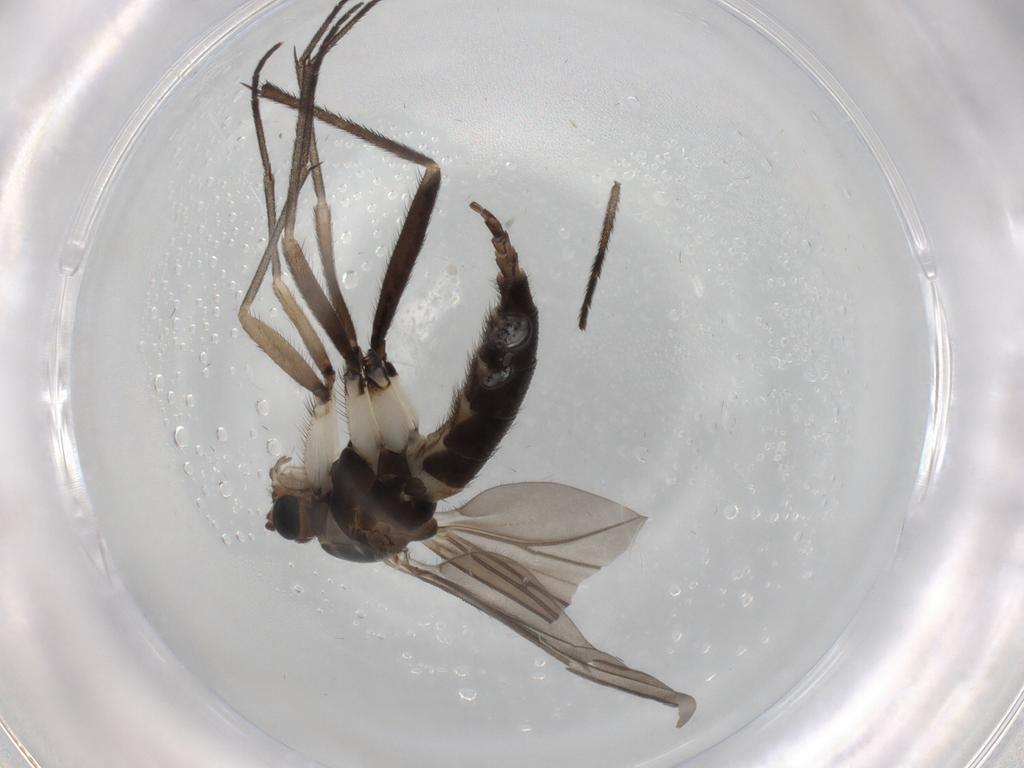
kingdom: Animalia
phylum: Arthropoda
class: Insecta
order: Diptera
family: Sciaridae
